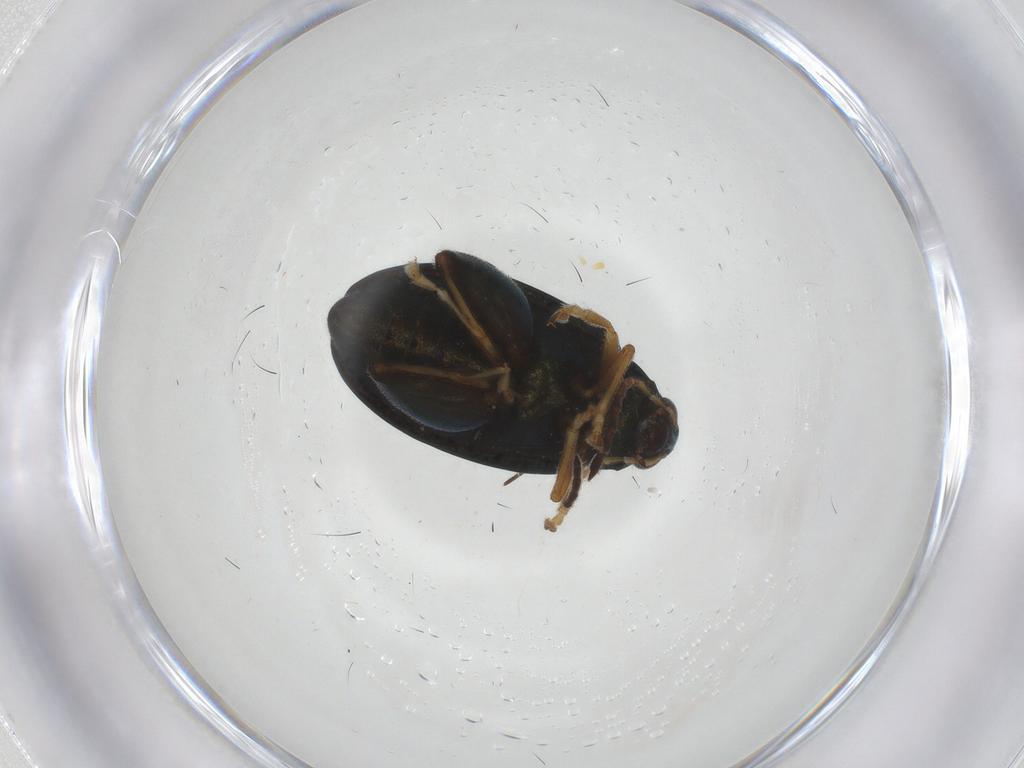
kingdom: Animalia
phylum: Arthropoda
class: Insecta
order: Coleoptera
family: Chrysomelidae
